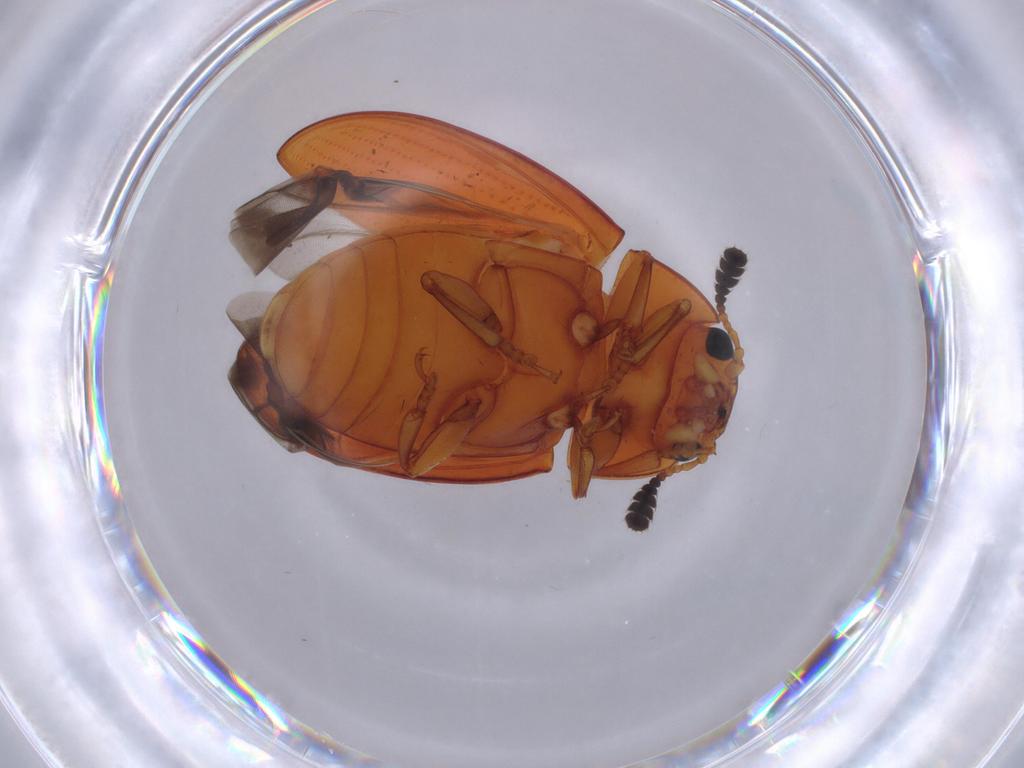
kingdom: Animalia
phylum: Arthropoda
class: Insecta
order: Coleoptera
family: Erotylidae
